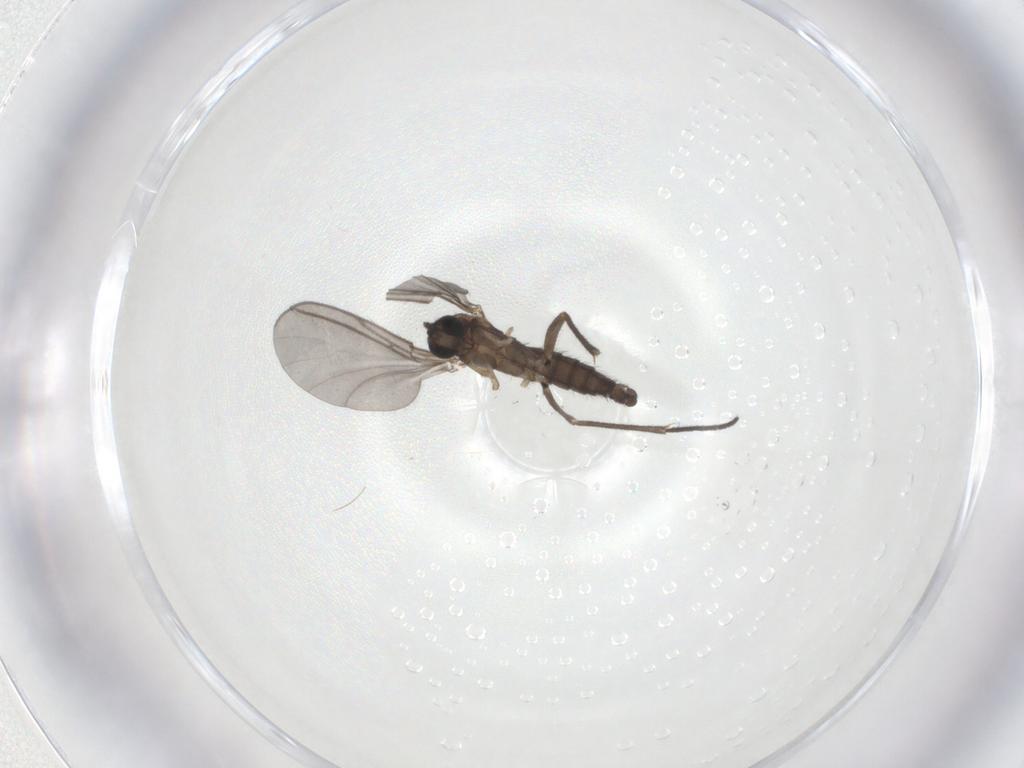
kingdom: Animalia
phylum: Arthropoda
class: Insecta
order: Diptera
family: Sciaridae
